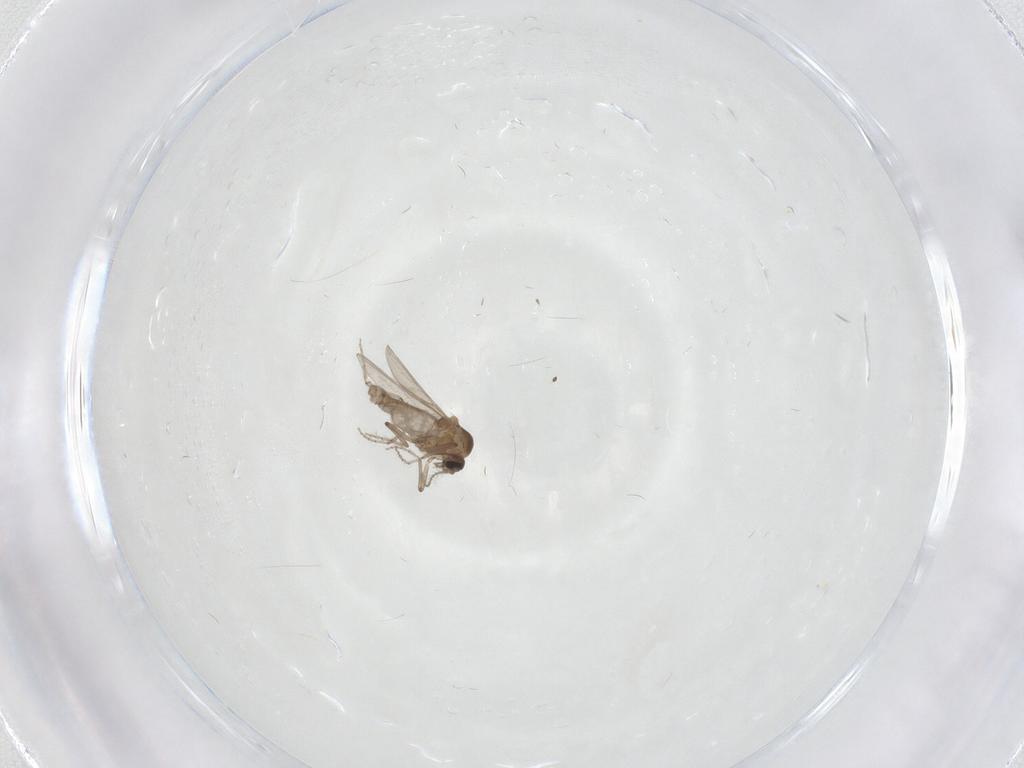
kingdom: Animalia
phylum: Arthropoda
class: Insecta
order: Diptera
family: Ceratopogonidae
